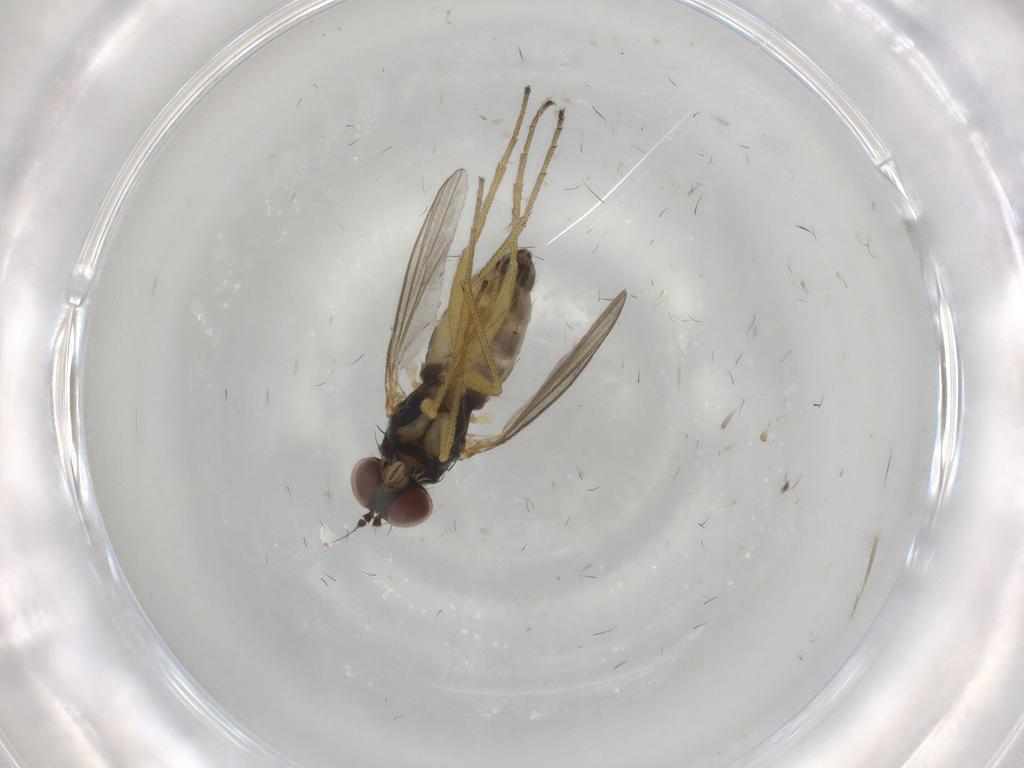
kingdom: Animalia
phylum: Arthropoda
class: Insecta
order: Diptera
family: Dolichopodidae
